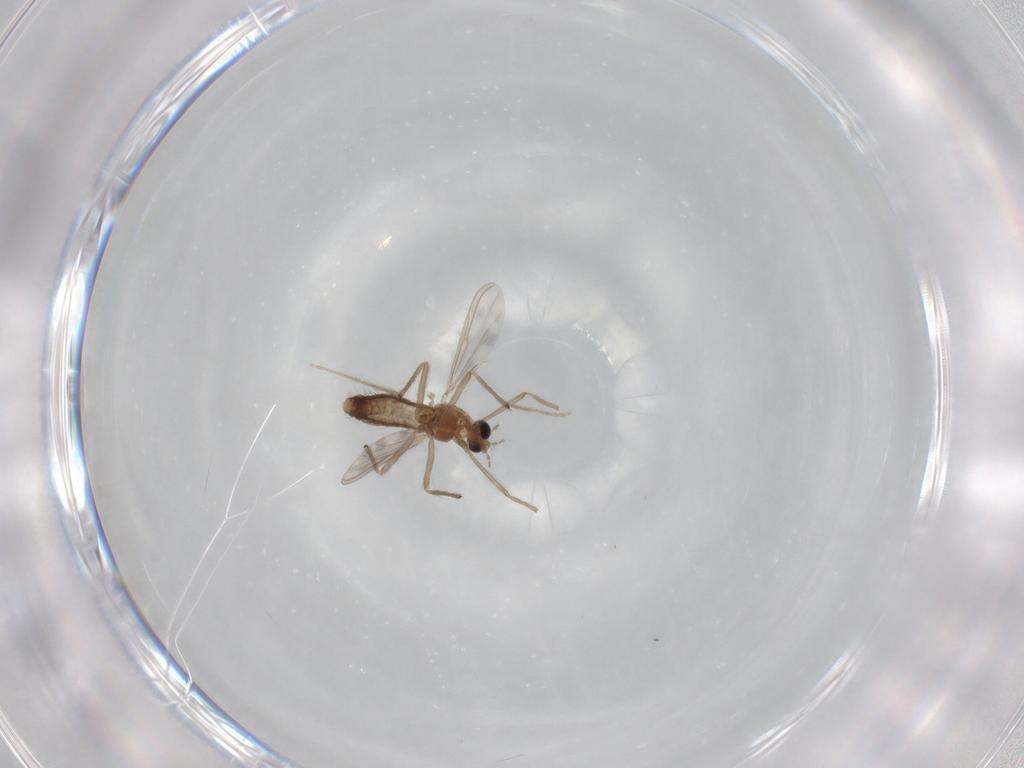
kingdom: Animalia
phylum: Arthropoda
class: Insecta
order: Diptera
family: Chironomidae
